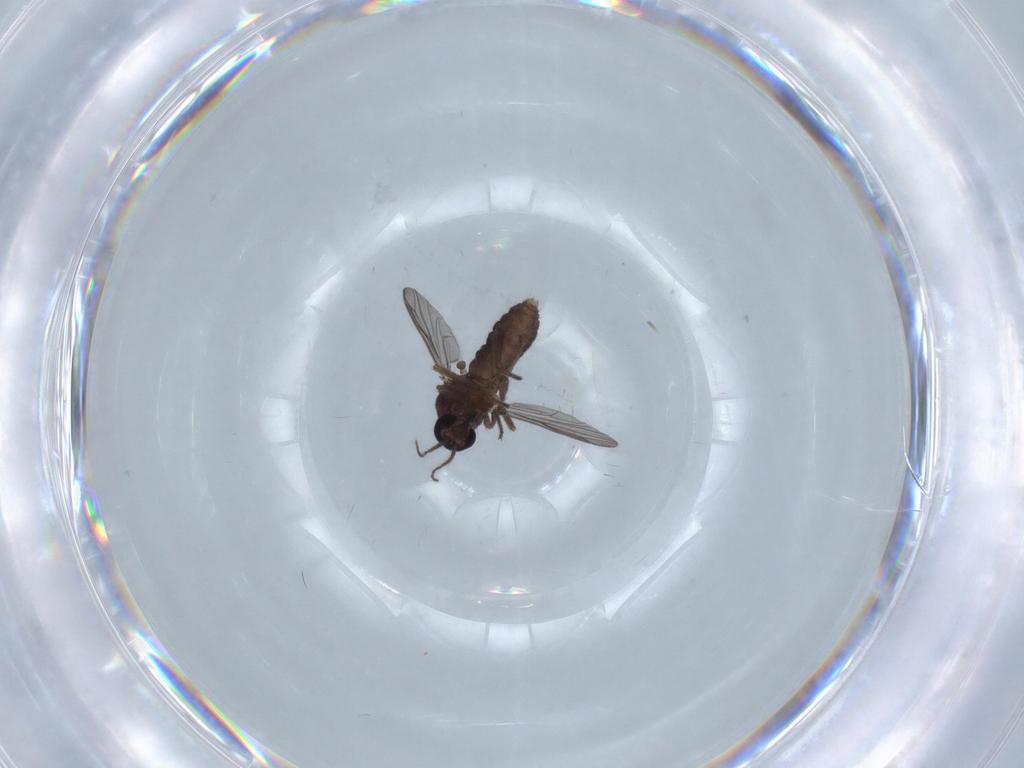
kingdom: Animalia
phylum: Arthropoda
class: Insecta
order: Diptera
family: Ceratopogonidae
